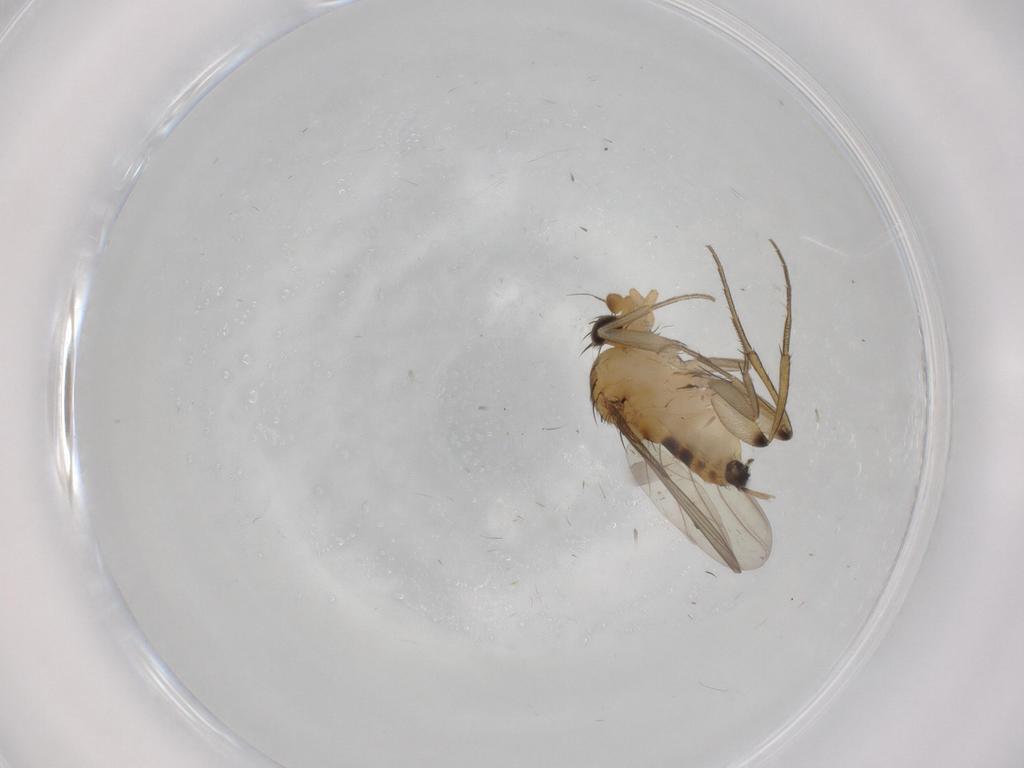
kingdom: Animalia
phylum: Arthropoda
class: Insecta
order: Diptera
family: Phoridae
